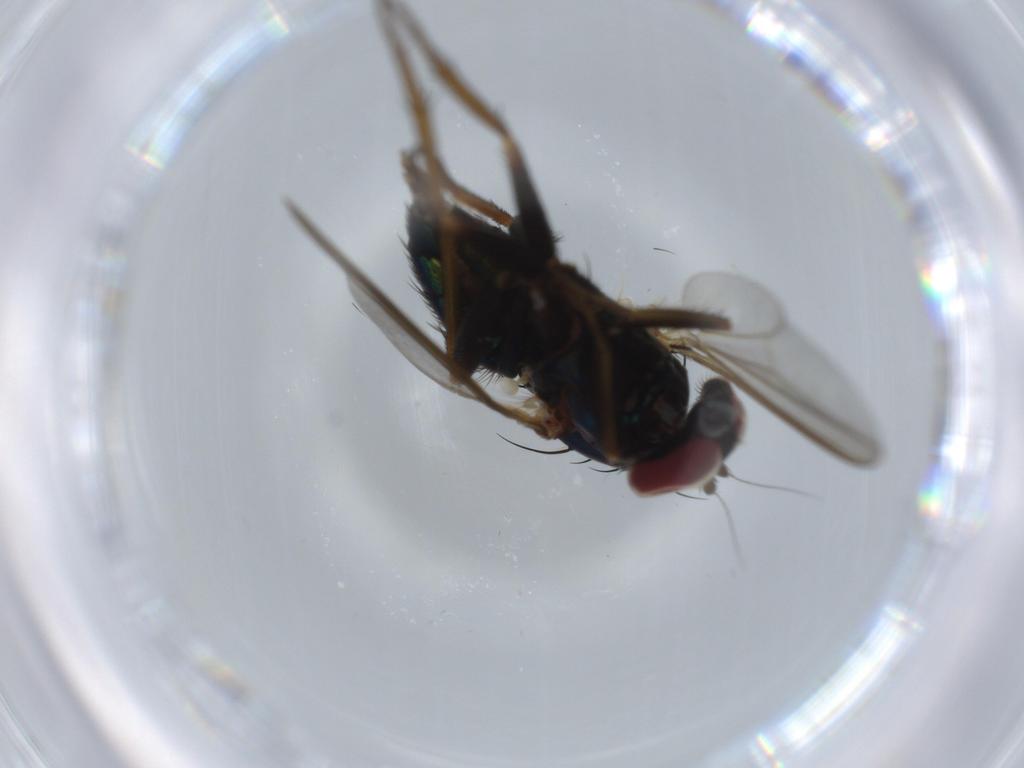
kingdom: Animalia
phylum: Arthropoda
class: Insecta
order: Diptera
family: Dolichopodidae
